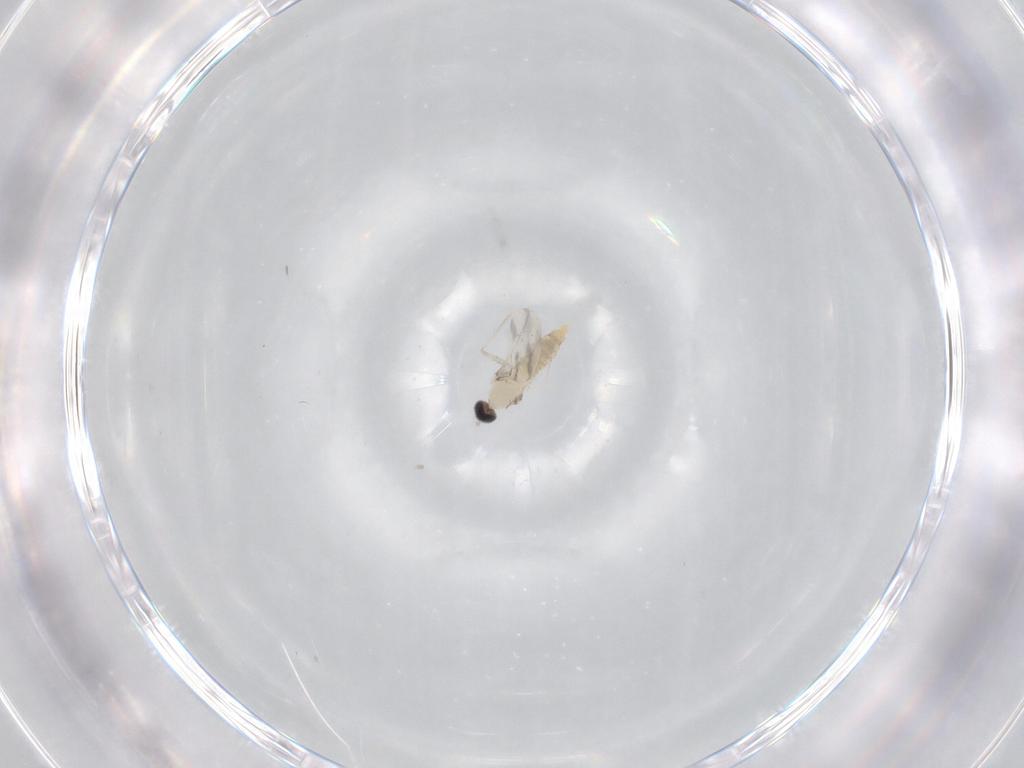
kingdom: Animalia
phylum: Arthropoda
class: Insecta
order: Diptera
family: Cecidomyiidae
